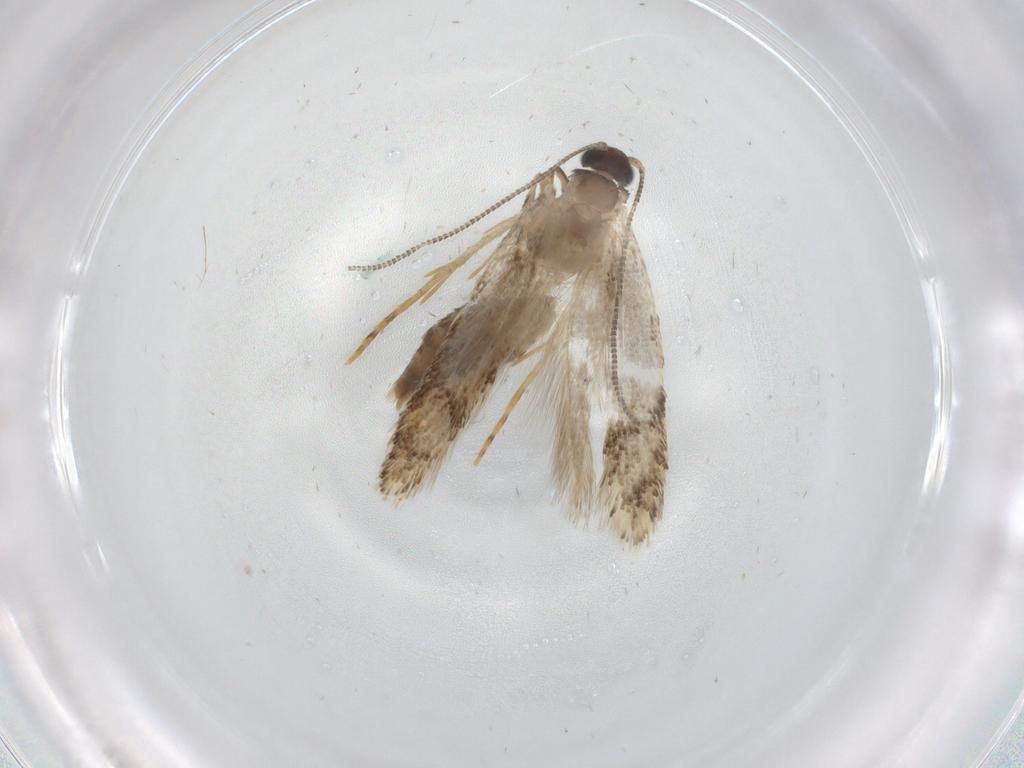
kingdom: Animalia
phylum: Arthropoda
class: Insecta
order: Lepidoptera
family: Tineidae
